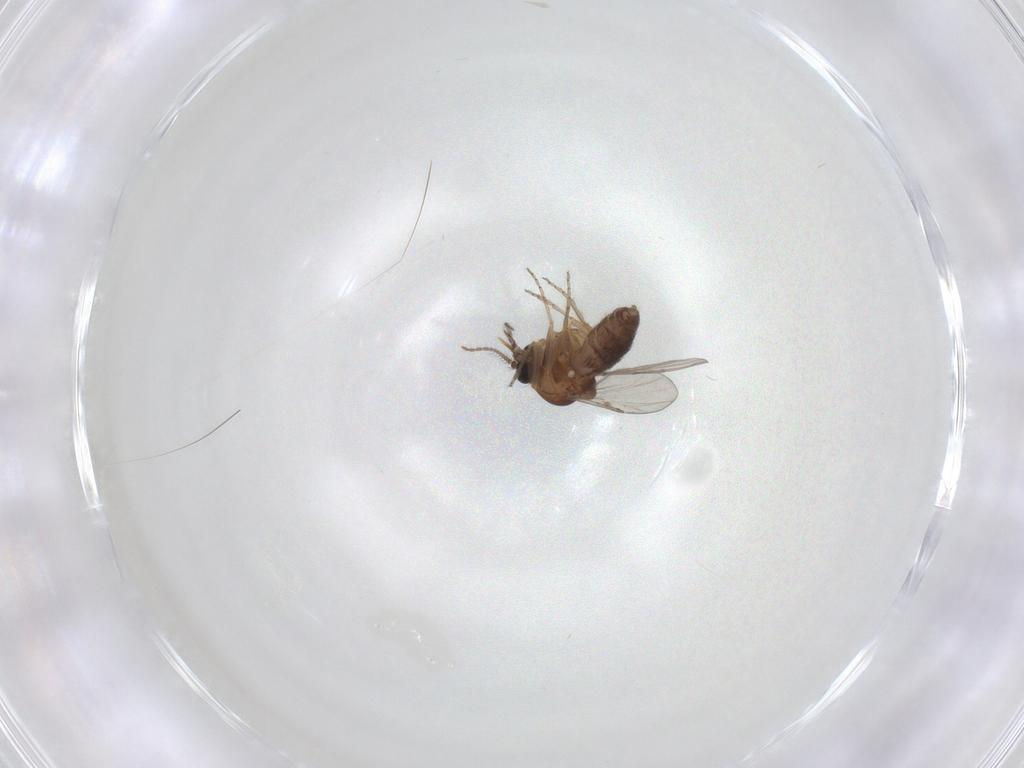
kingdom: Animalia
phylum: Arthropoda
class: Insecta
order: Diptera
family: Ceratopogonidae
